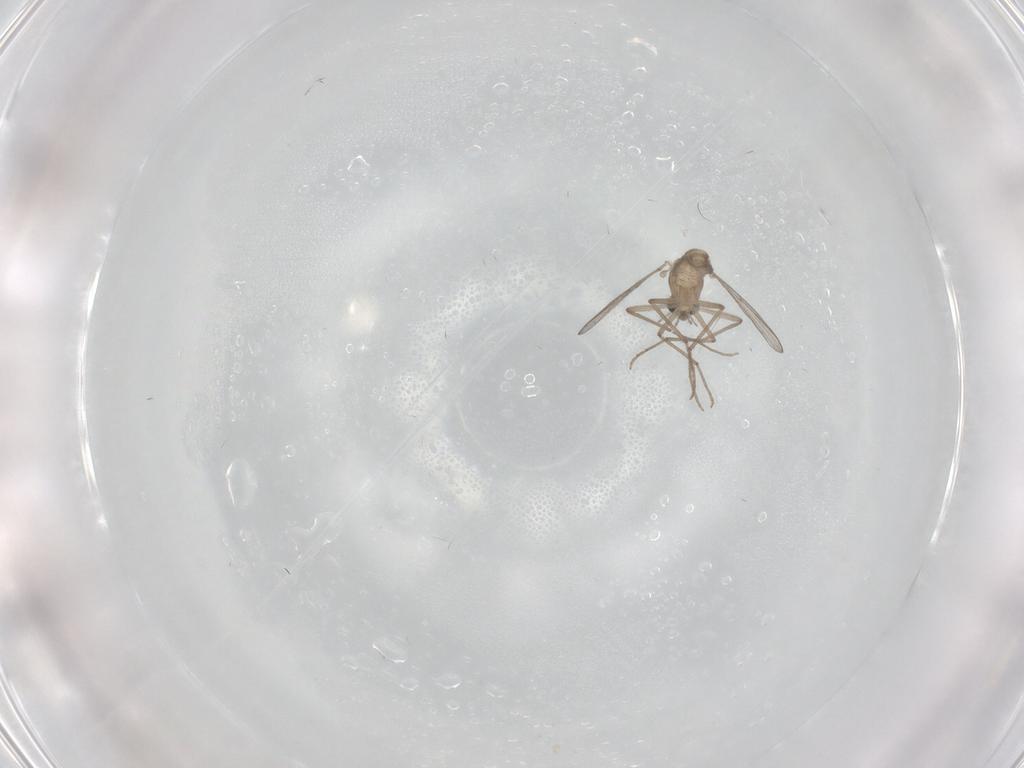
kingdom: Animalia
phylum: Arthropoda
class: Insecta
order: Diptera
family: Chironomidae
